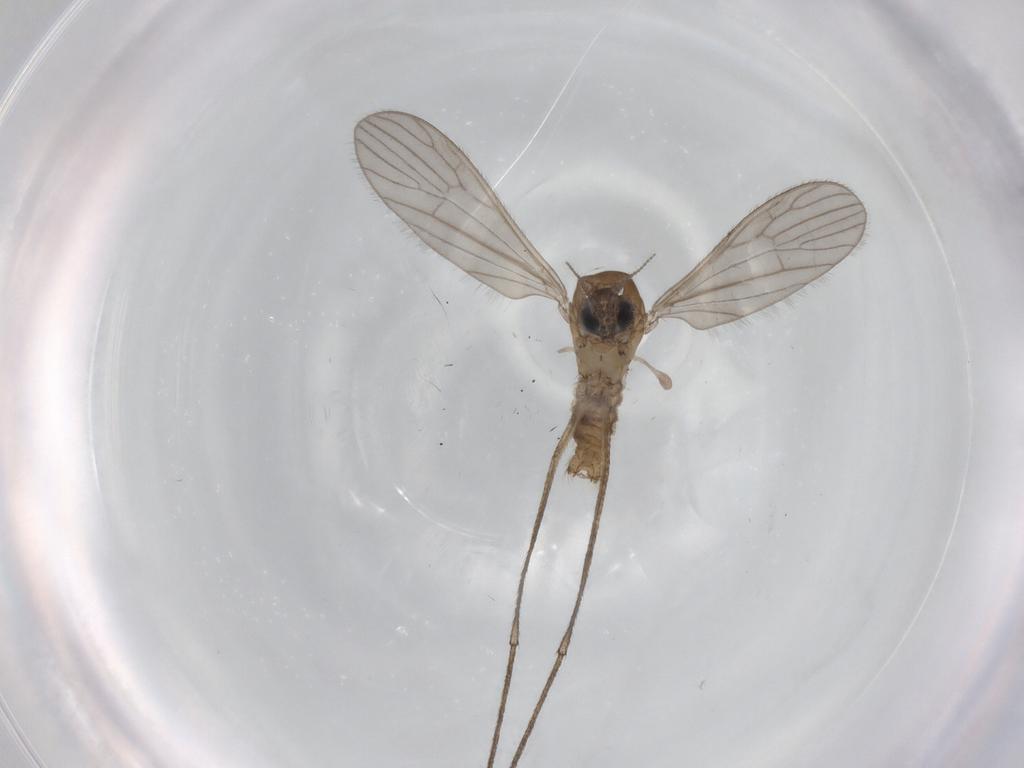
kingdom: Animalia
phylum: Arthropoda
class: Insecta
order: Diptera
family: Limoniidae
